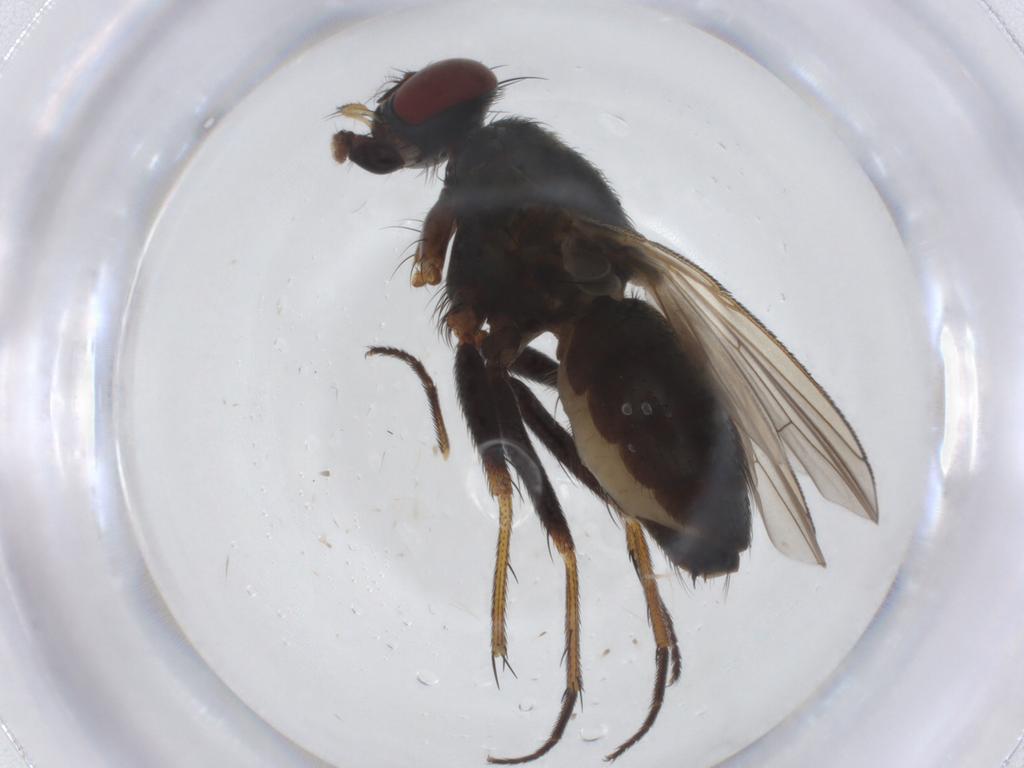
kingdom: Animalia
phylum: Arthropoda
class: Insecta
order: Diptera
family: Muscidae
